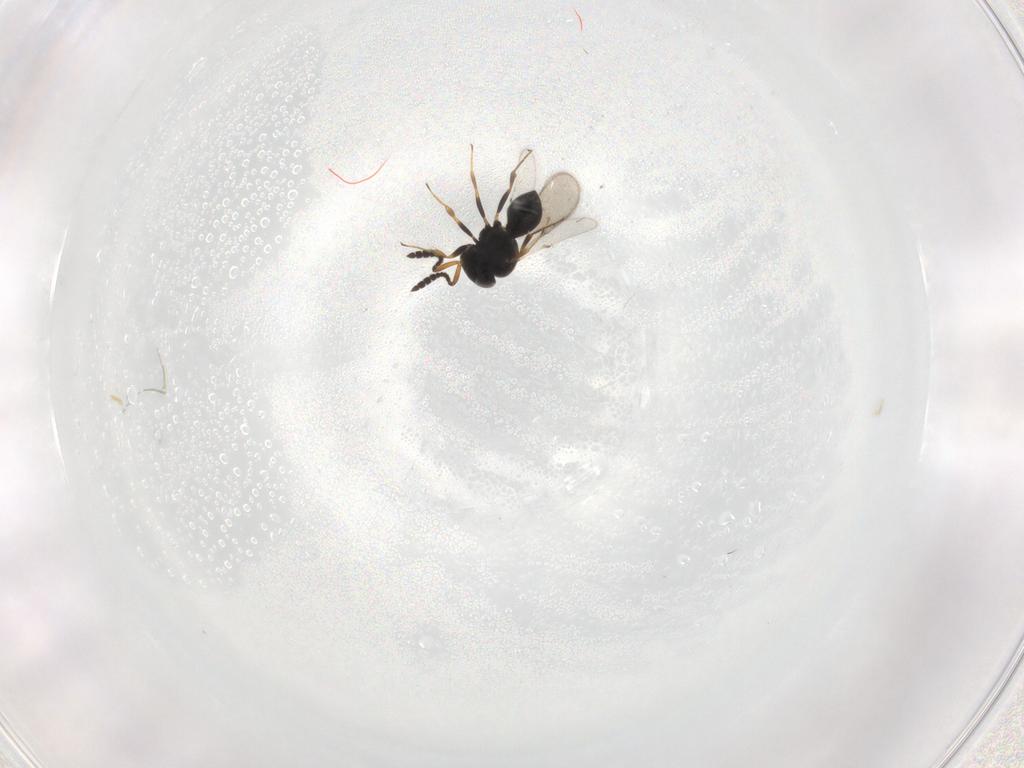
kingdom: Animalia
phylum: Arthropoda
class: Insecta
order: Hymenoptera
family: Scelionidae
